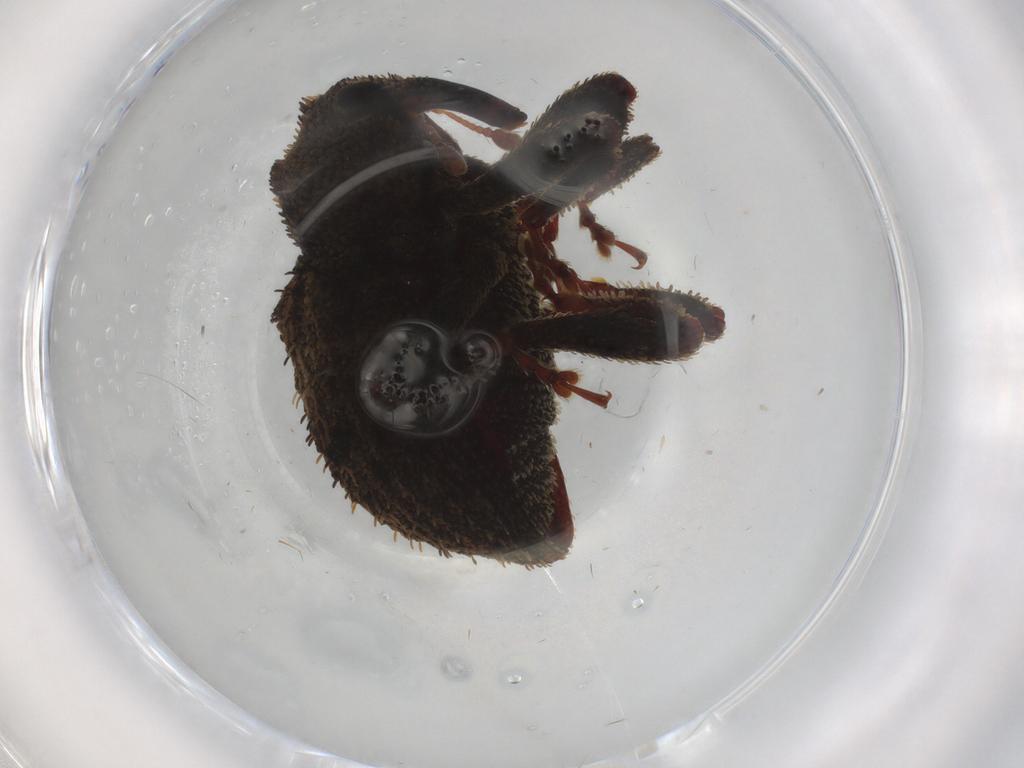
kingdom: Animalia
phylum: Arthropoda
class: Insecta
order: Coleoptera
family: Curculionidae
